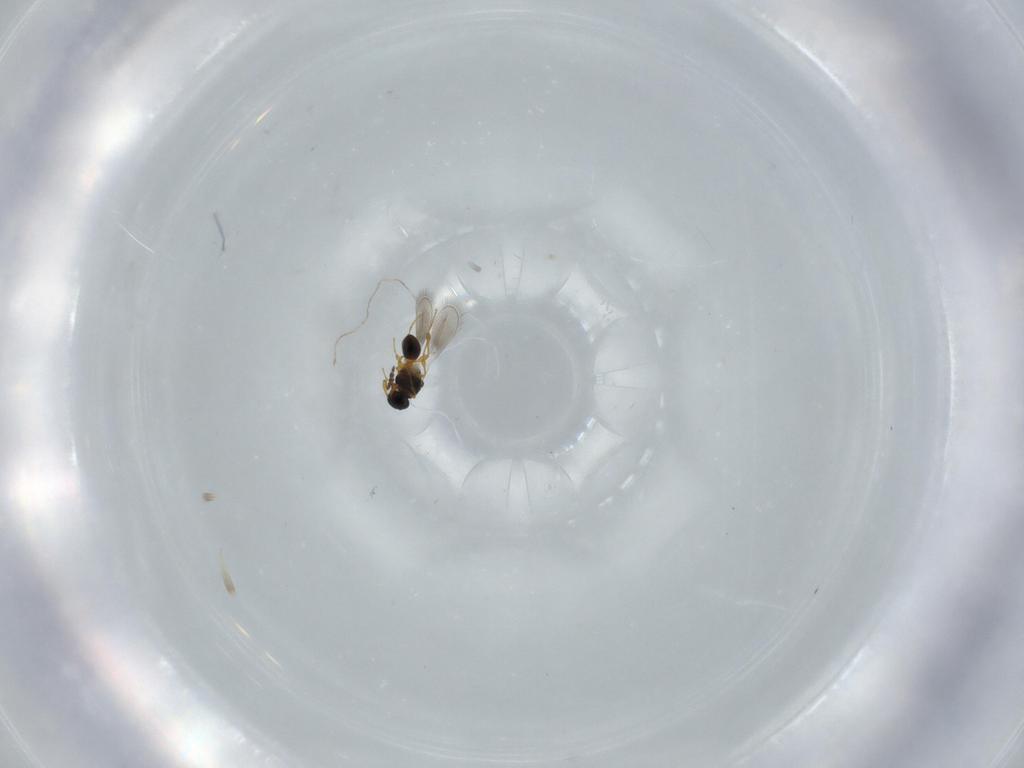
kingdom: Animalia
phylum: Arthropoda
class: Insecta
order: Hymenoptera
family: Platygastridae
